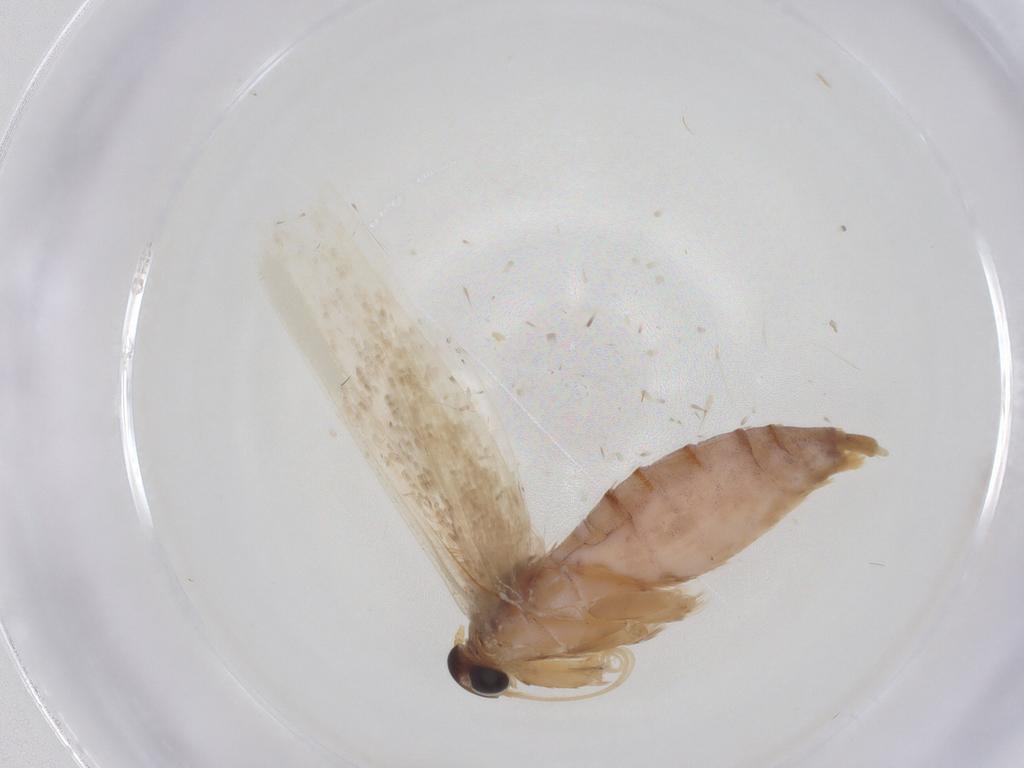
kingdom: Animalia
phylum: Arthropoda
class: Insecta
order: Lepidoptera
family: Blastobasidae
